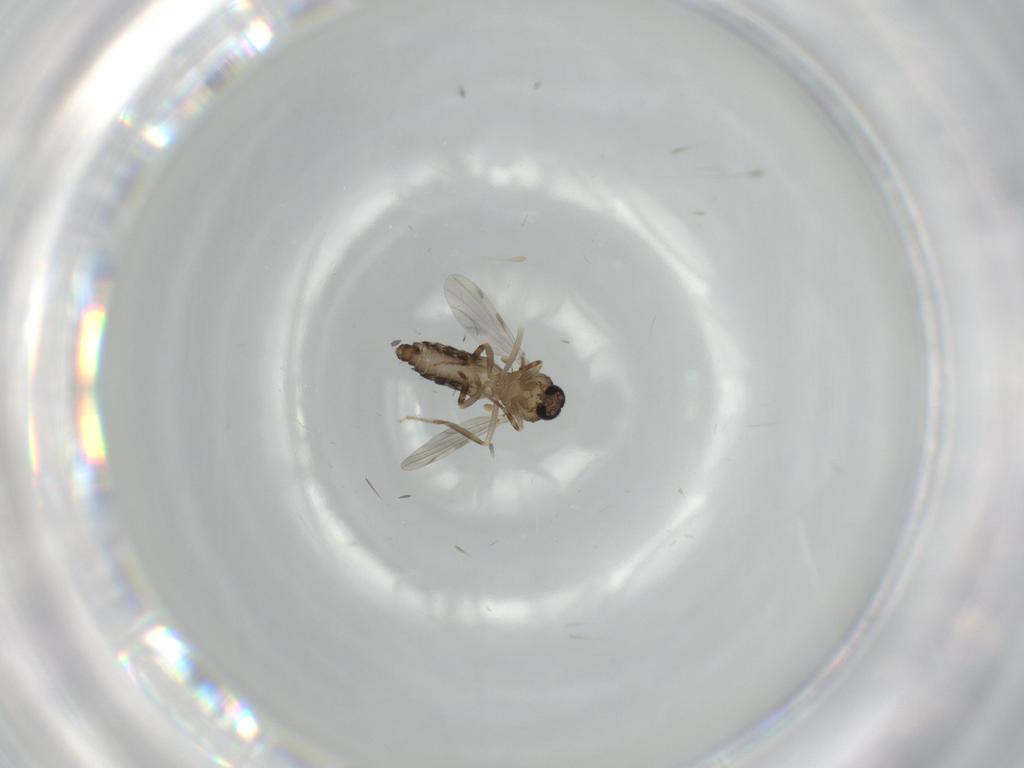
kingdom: Animalia
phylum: Arthropoda
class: Insecta
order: Diptera
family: Ceratopogonidae
